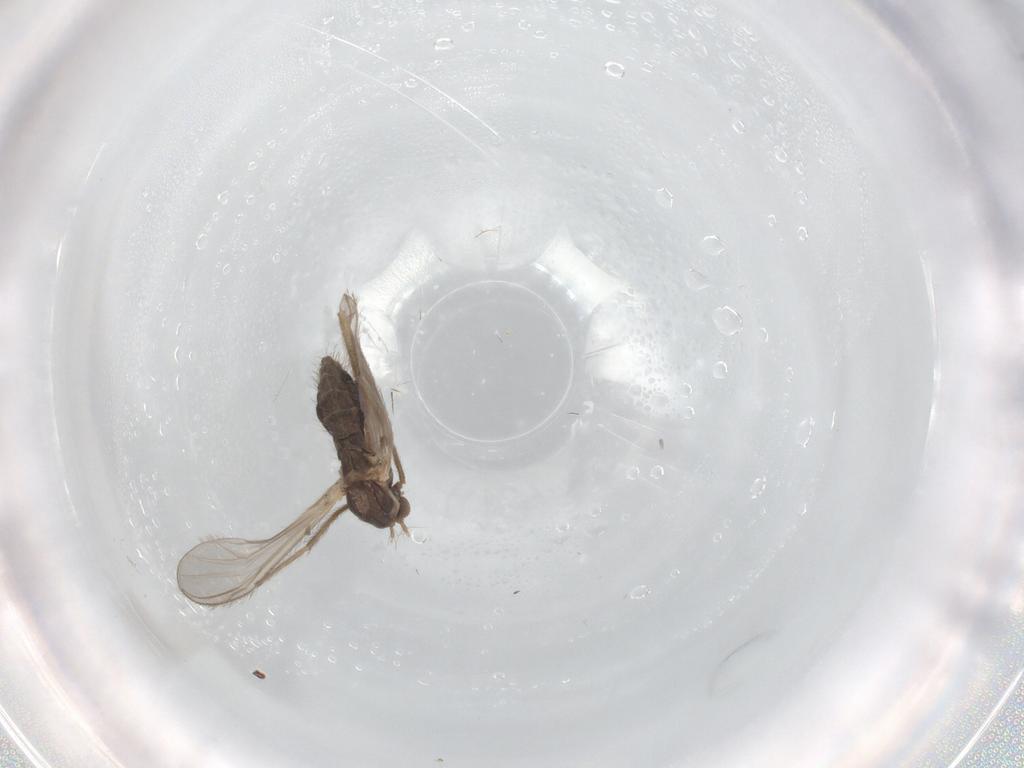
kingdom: Animalia
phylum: Arthropoda
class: Insecta
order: Diptera
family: Chironomidae
